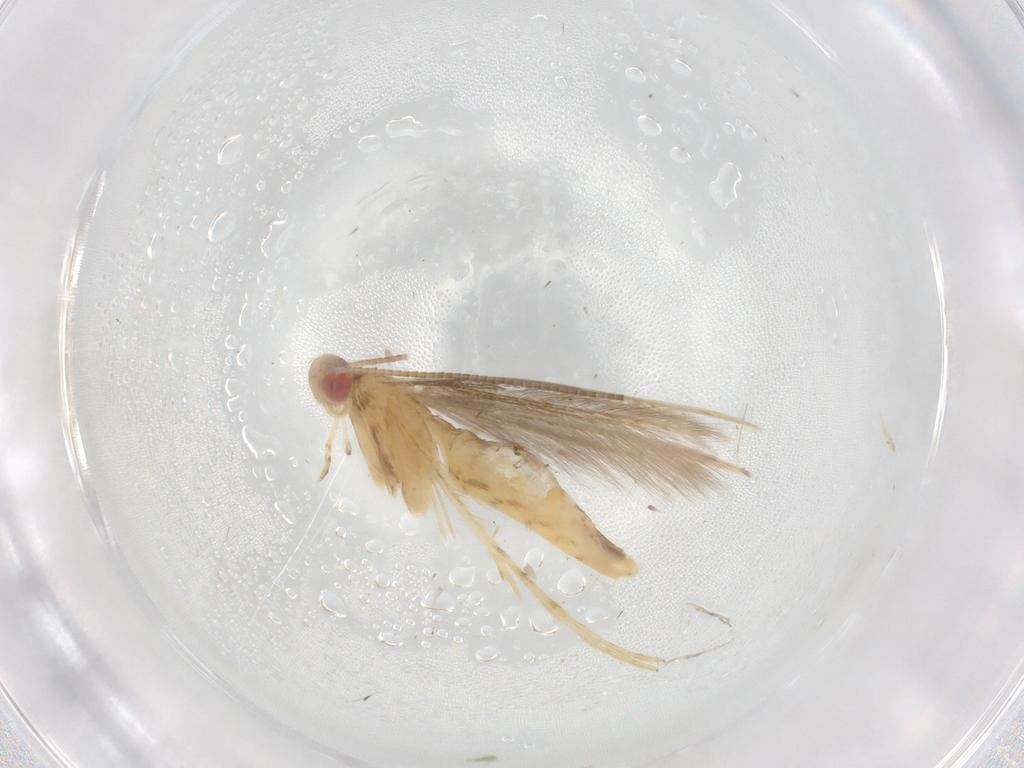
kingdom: Animalia
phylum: Arthropoda
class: Insecta
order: Lepidoptera
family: Gracillariidae
